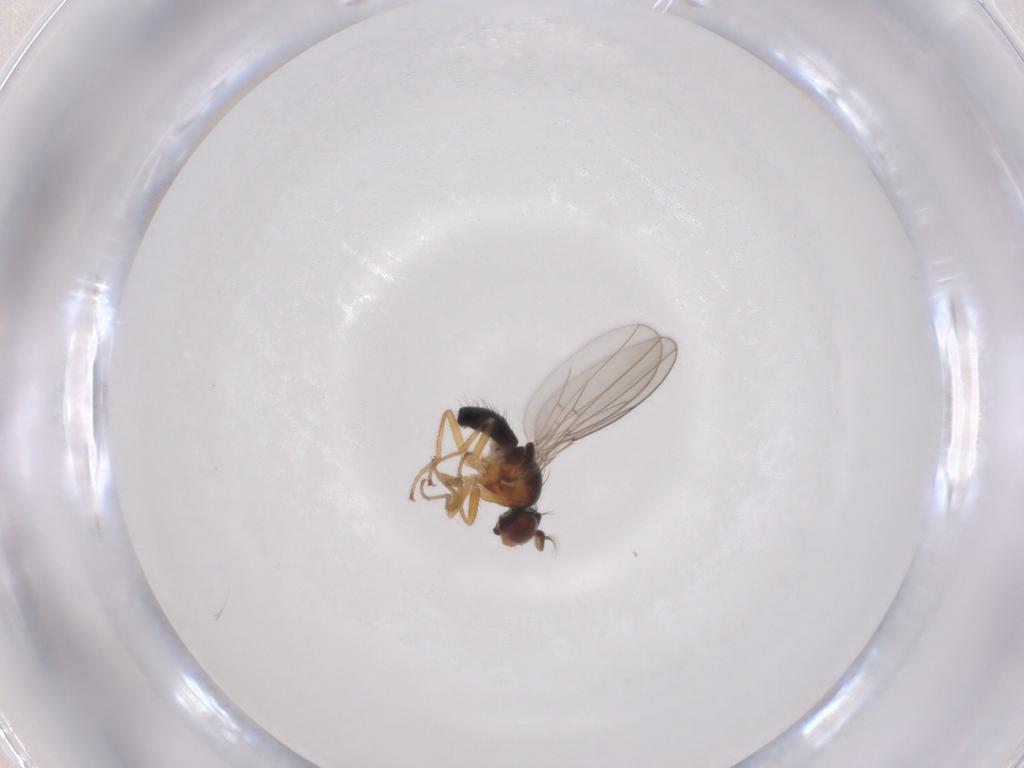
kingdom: Animalia
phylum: Arthropoda
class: Insecta
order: Diptera
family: Ephydridae
